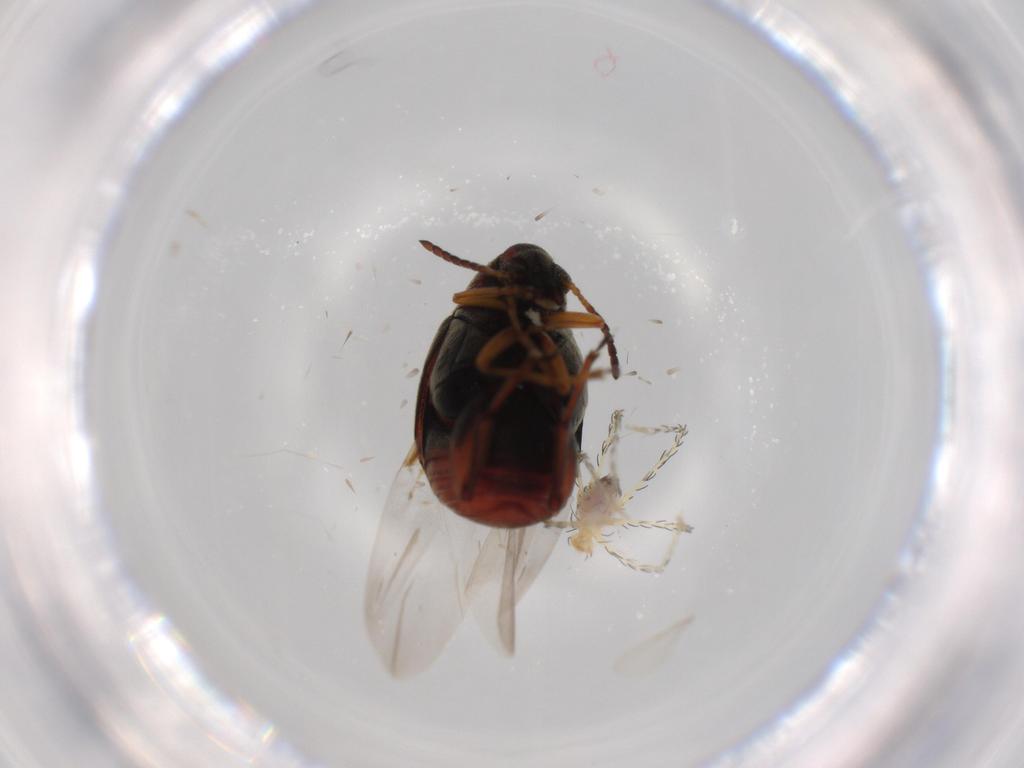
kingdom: Animalia
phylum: Arthropoda
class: Insecta
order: Coleoptera
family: Chrysomelidae
